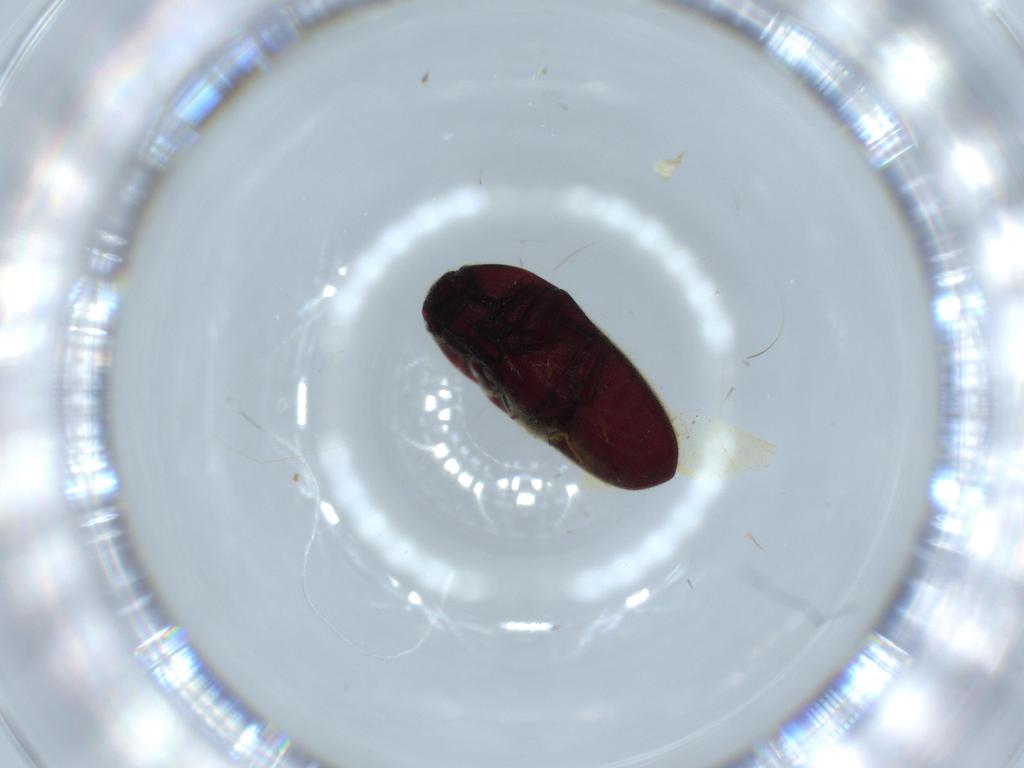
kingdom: Animalia
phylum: Arthropoda
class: Insecta
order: Coleoptera
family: Throscidae
